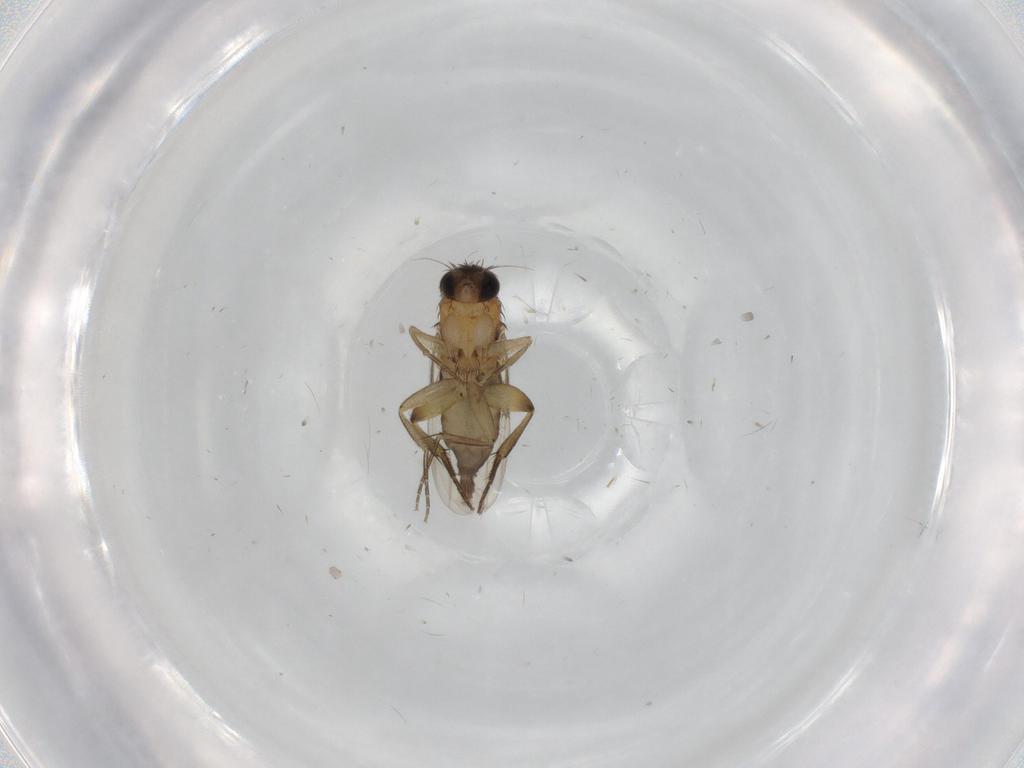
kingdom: Animalia
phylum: Arthropoda
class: Insecta
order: Diptera
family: Phoridae
